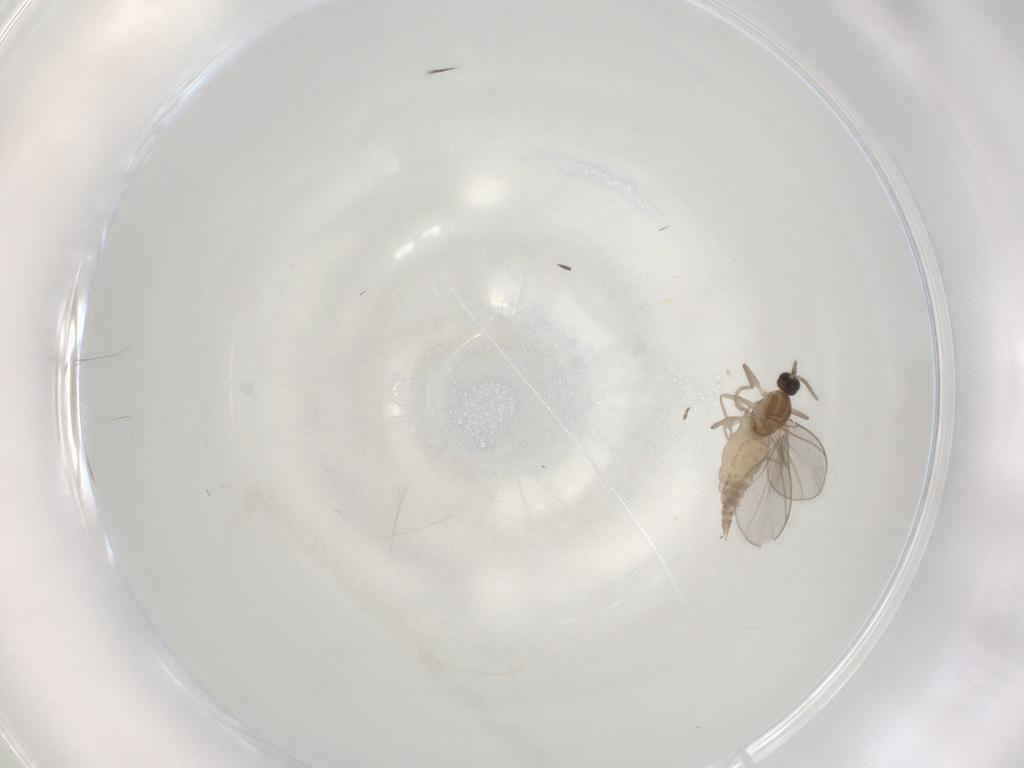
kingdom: Animalia
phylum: Arthropoda
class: Insecta
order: Diptera
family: Cecidomyiidae
